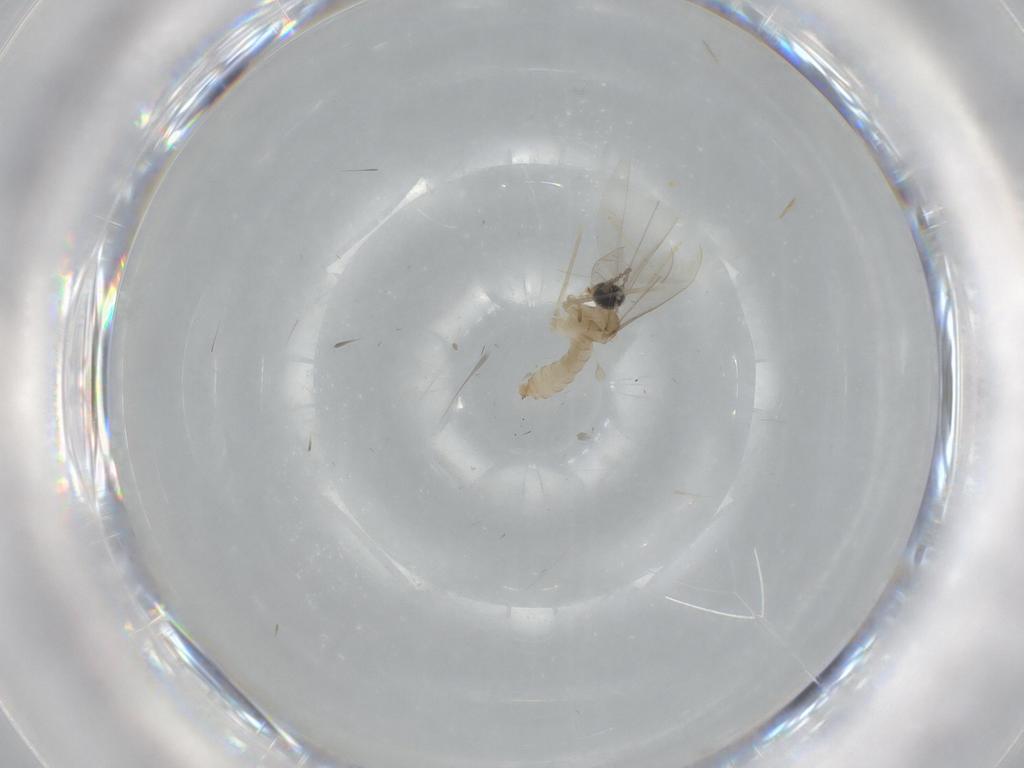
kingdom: Animalia
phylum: Arthropoda
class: Insecta
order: Diptera
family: Cecidomyiidae
